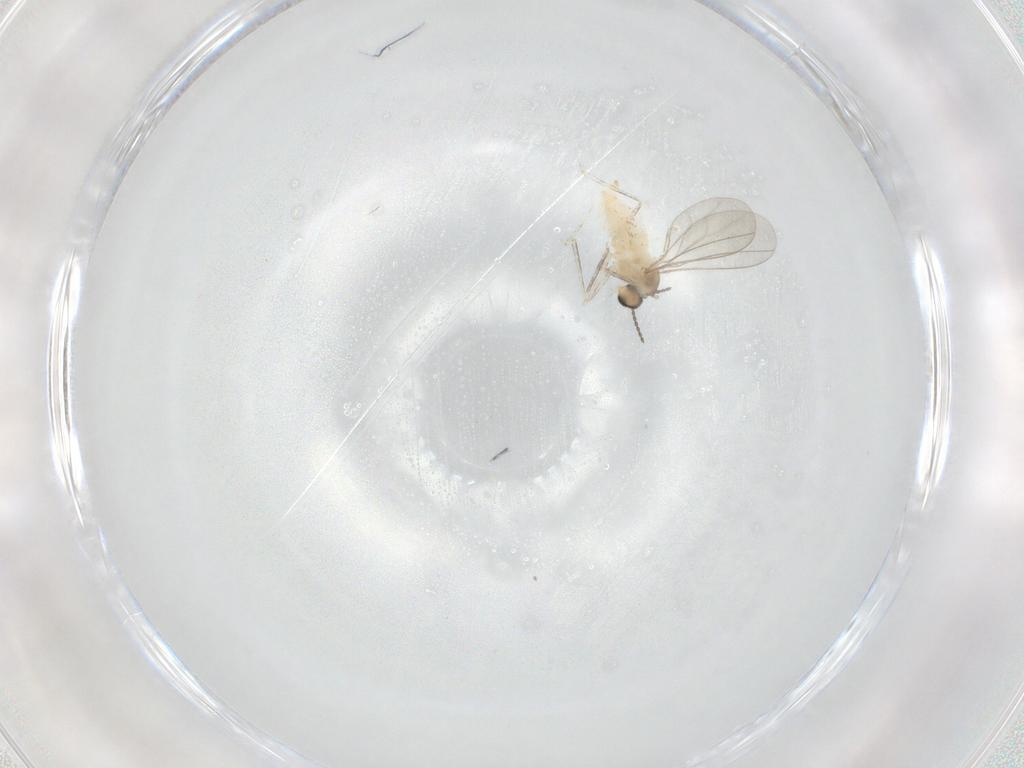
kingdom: Animalia
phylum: Arthropoda
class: Insecta
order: Diptera
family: Cecidomyiidae
